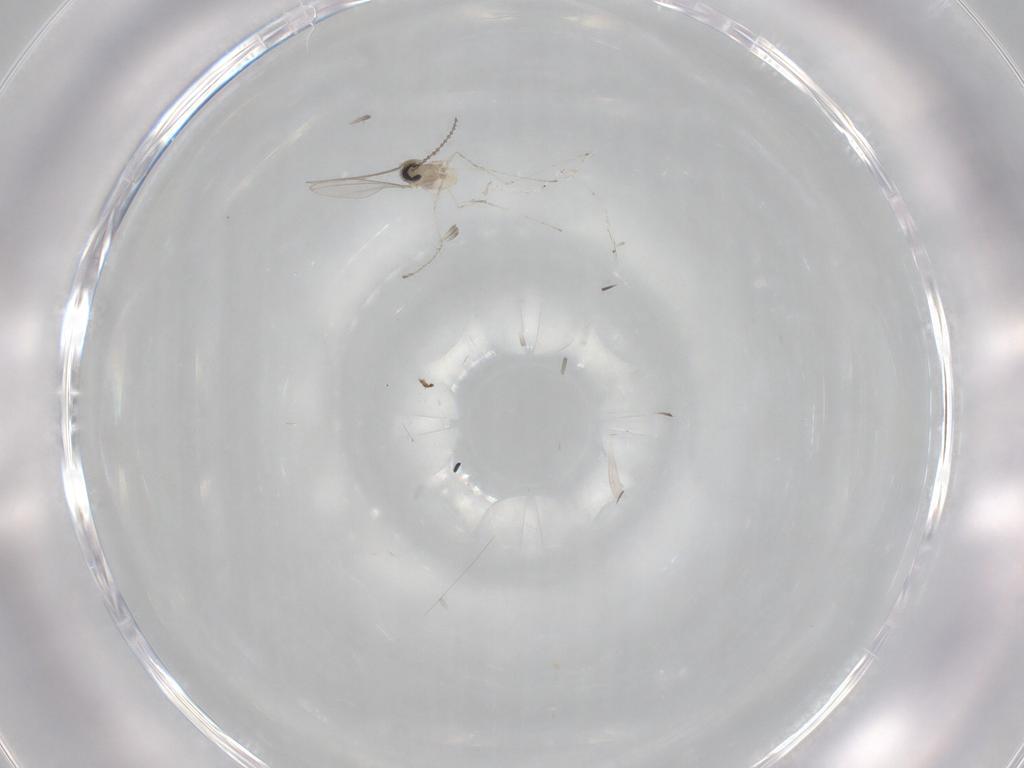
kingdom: Animalia
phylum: Arthropoda
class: Insecta
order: Diptera
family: Cecidomyiidae
